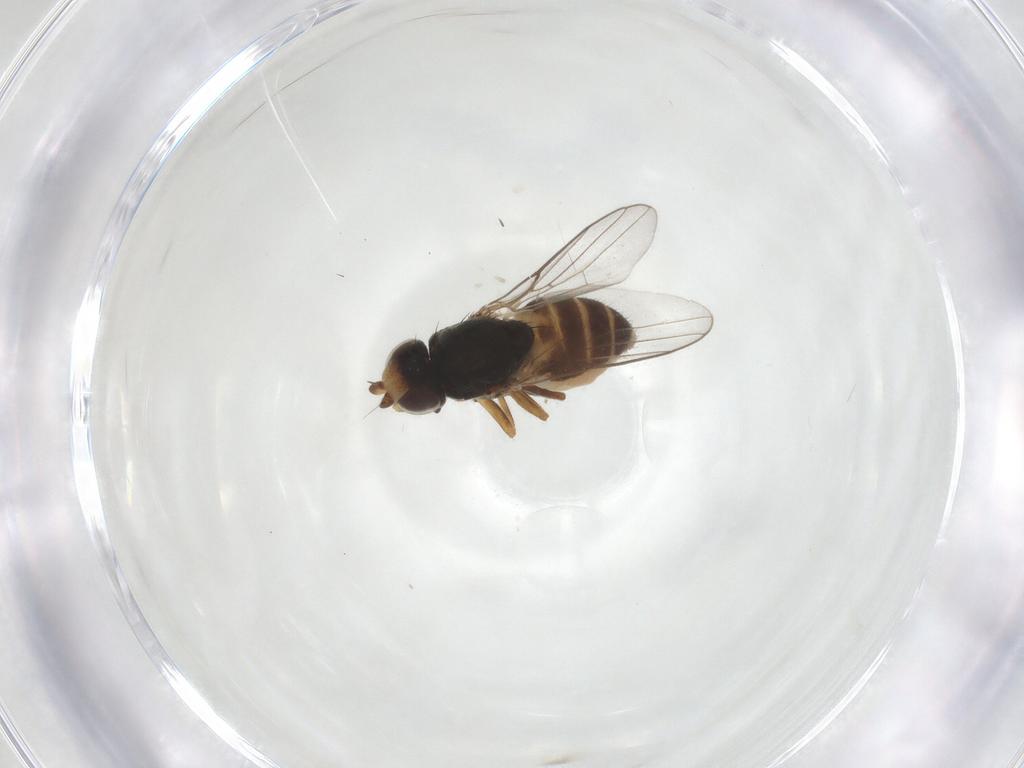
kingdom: Animalia
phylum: Arthropoda
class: Insecta
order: Diptera
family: Chloropidae
